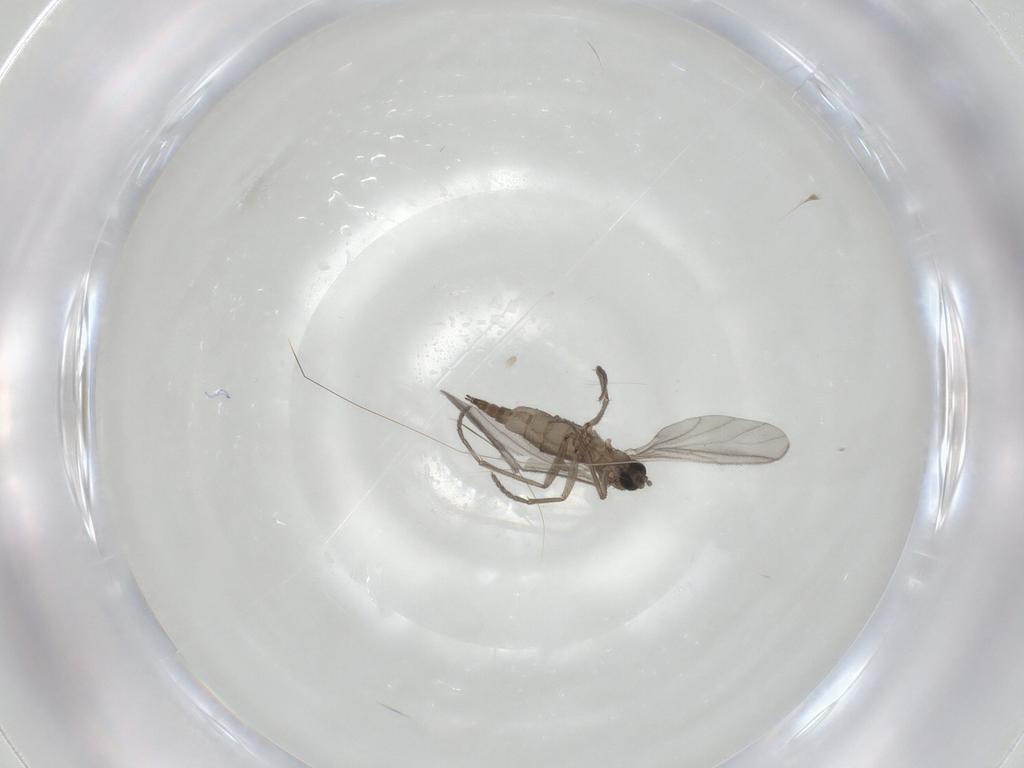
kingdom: Animalia
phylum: Arthropoda
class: Insecta
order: Diptera
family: Sciaridae
